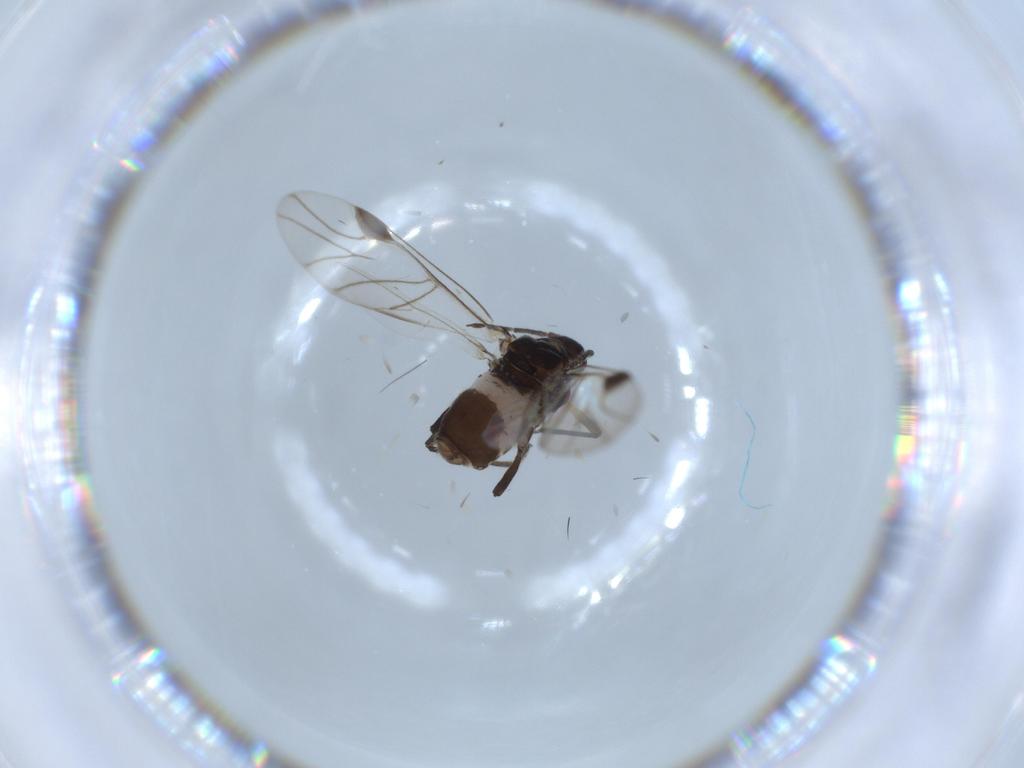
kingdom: Animalia
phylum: Arthropoda
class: Insecta
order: Hemiptera
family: Aphididae
